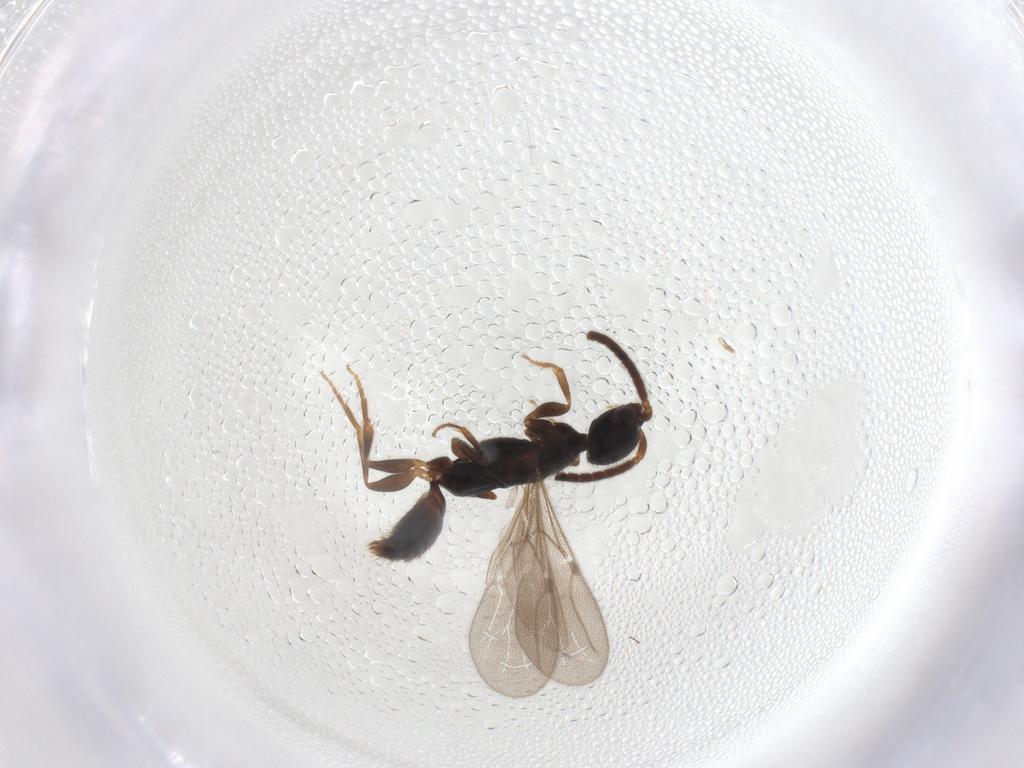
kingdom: Animalia
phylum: Arthropoda
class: Insecta
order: Hymenoptera
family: Bethylidae
